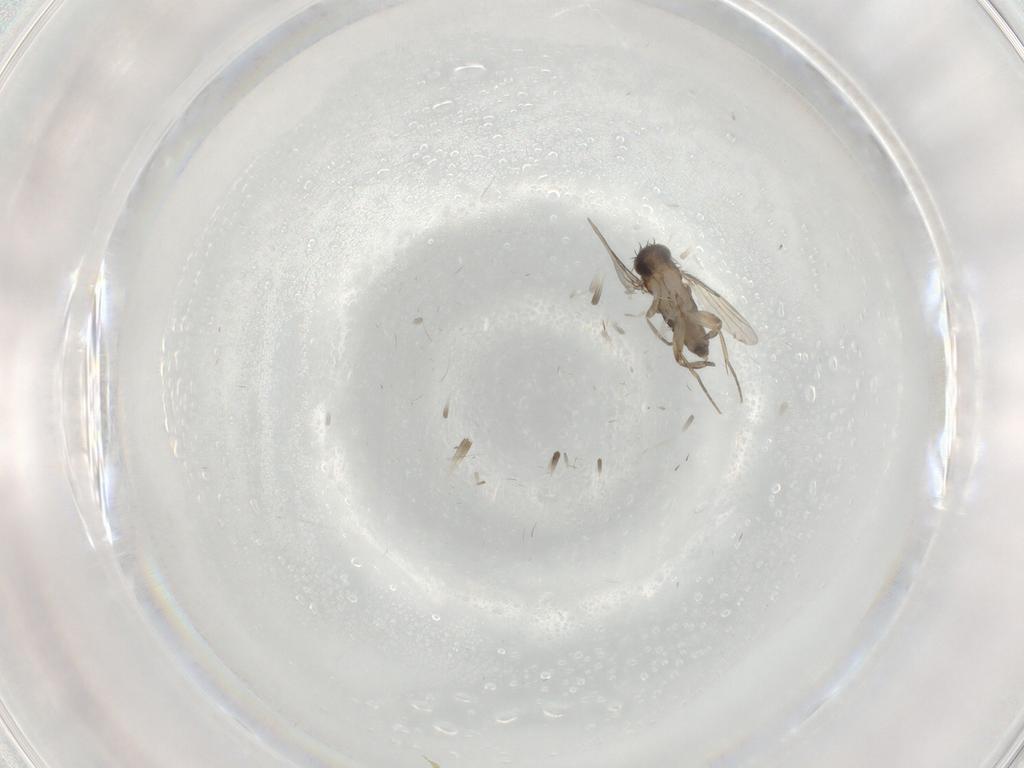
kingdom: Animalia
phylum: Arthropoda
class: Insecta
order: Diptera
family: Phoridae
